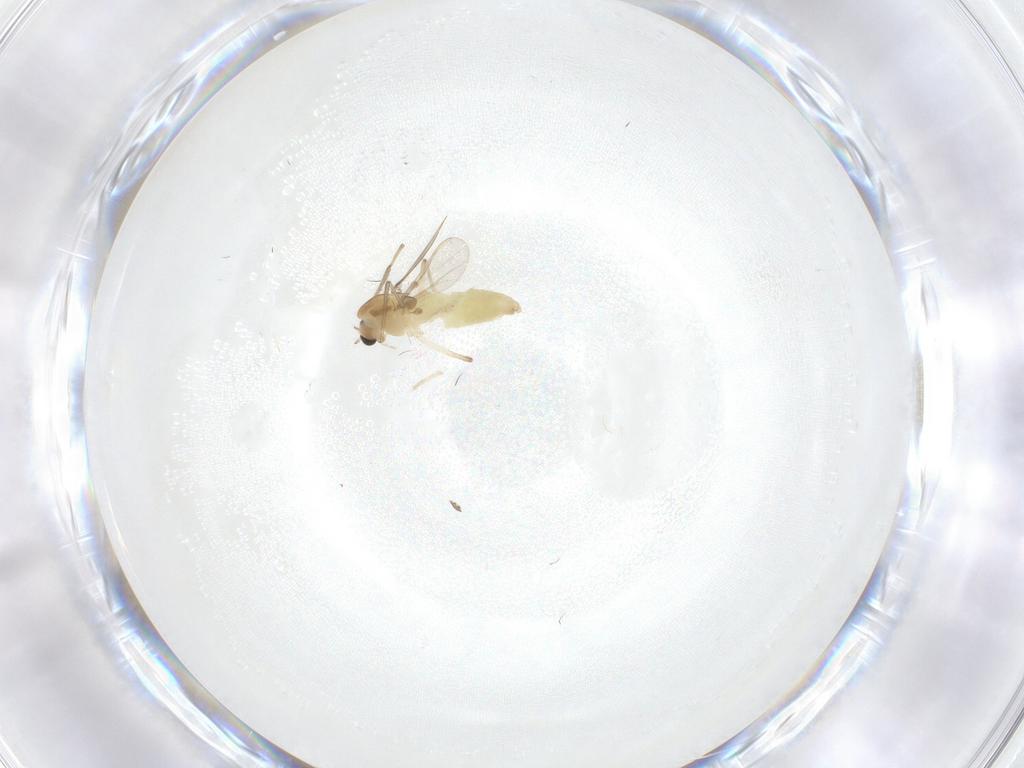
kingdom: Animalia
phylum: Arthropoda
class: Insecta
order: Diptera
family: Chironomidae
